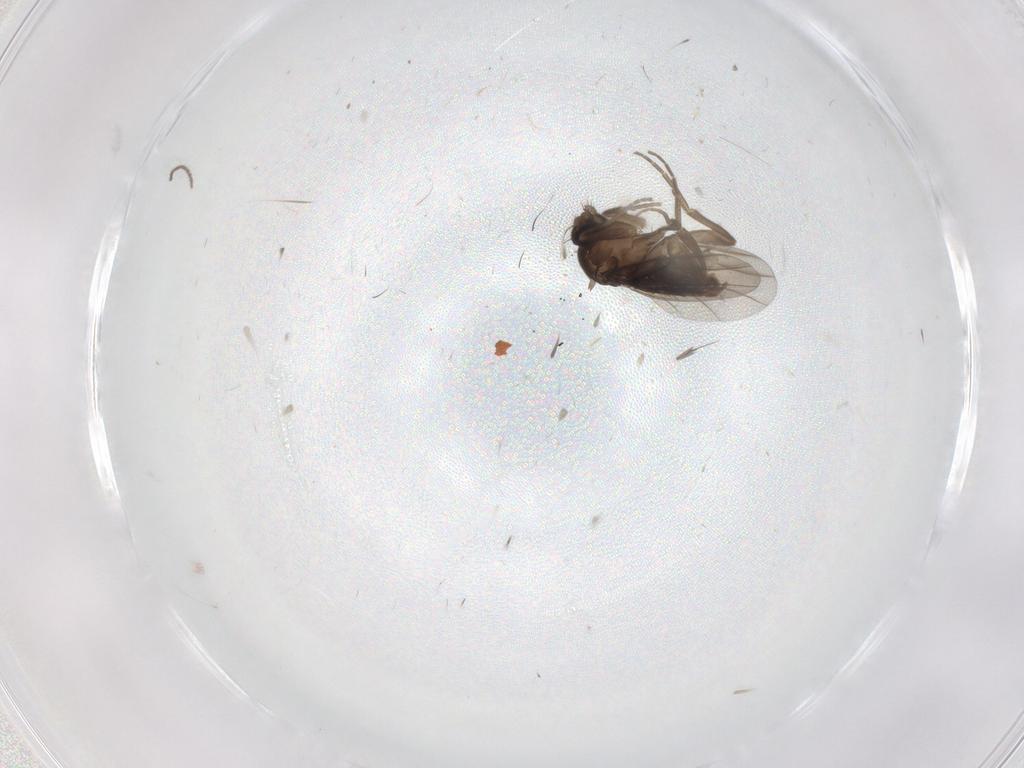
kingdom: Animalia
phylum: Arthropoda
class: Insecta
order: Diptera
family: Phoridae
